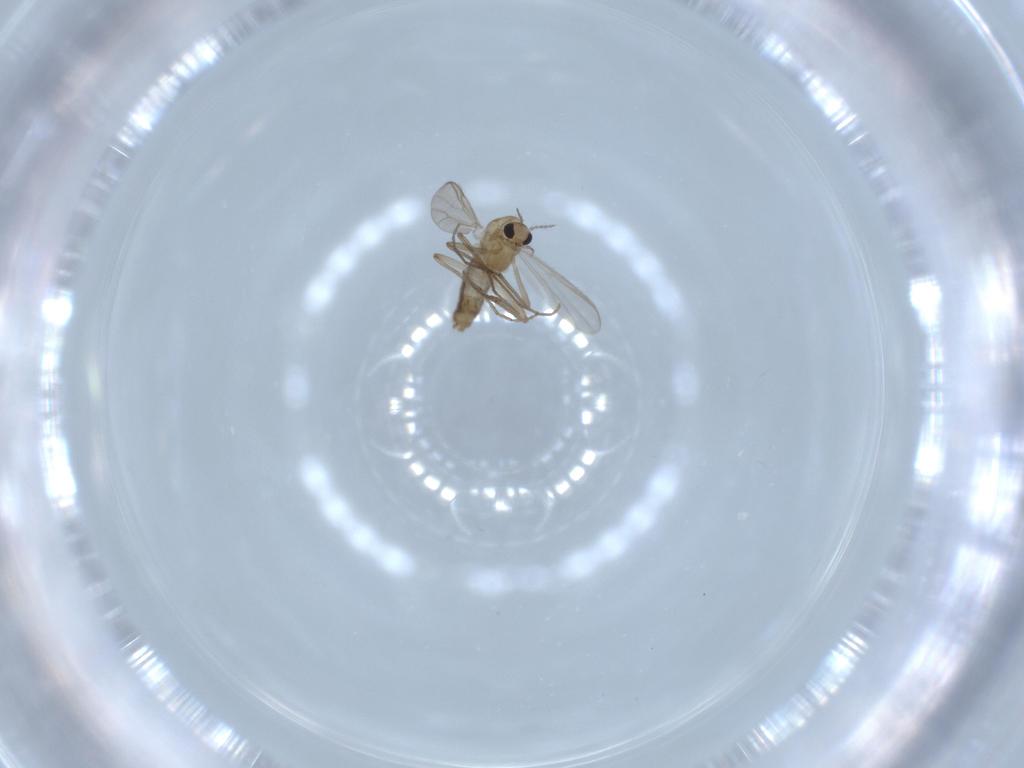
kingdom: Animalia
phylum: Arthropoda
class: Insecta
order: Diptera
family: Chironomidae
